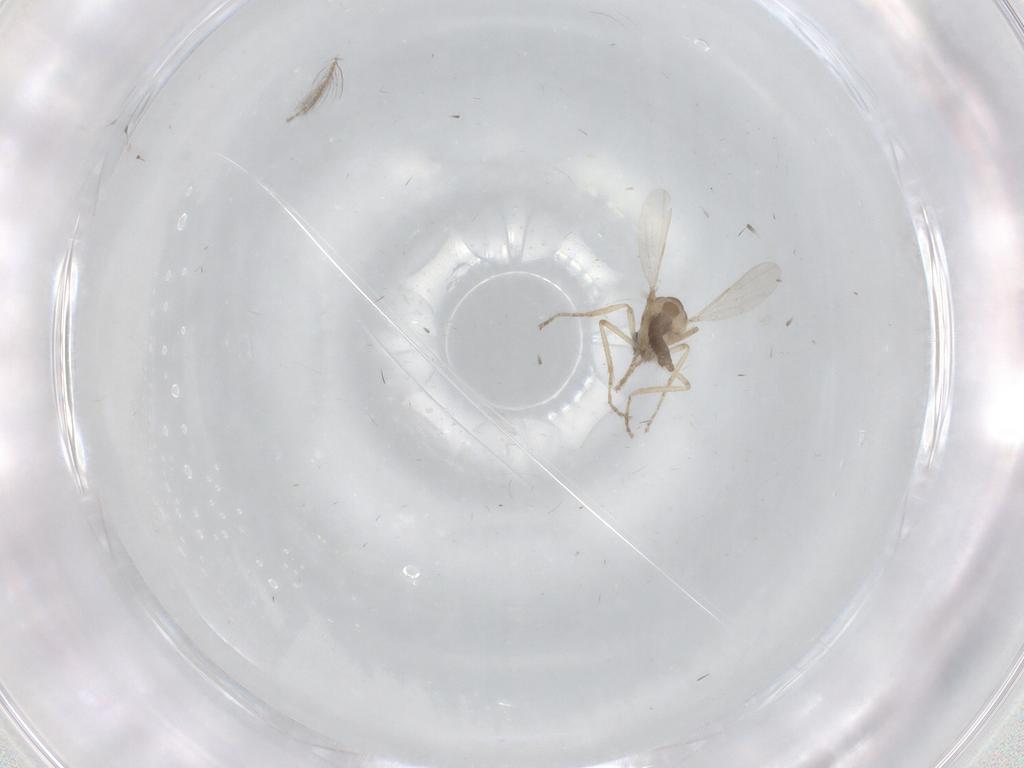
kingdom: Animalia
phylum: Arthropoda
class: Insecta
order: Diptera
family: Ceratopogonidae
